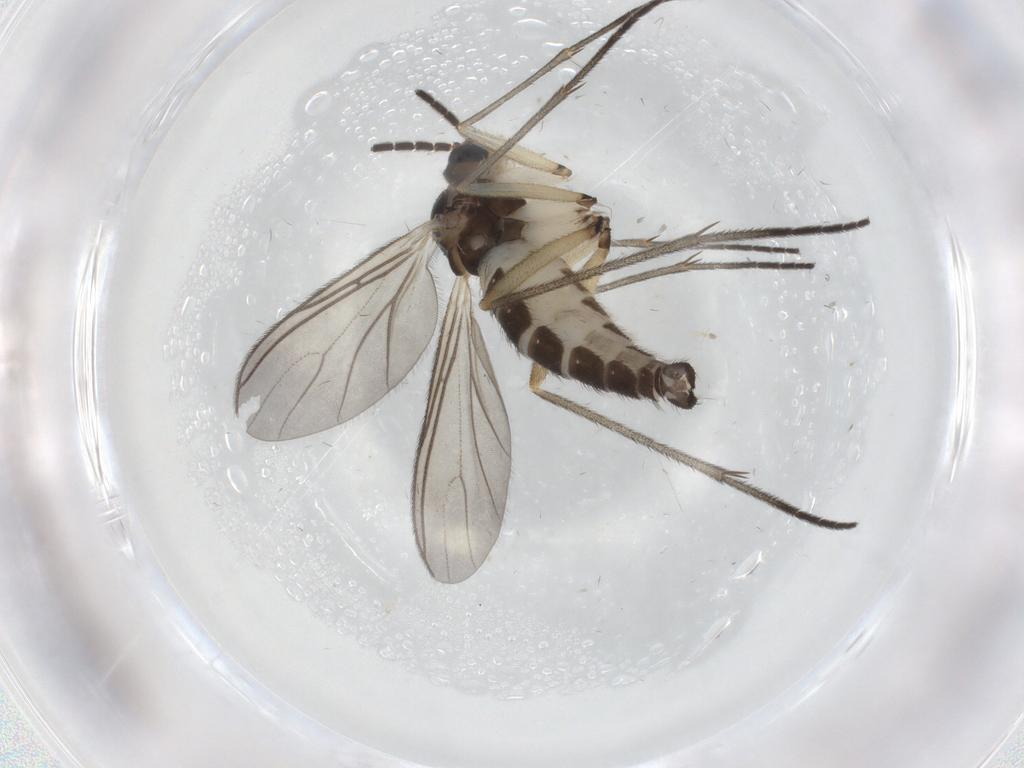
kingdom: Animalia
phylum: Arthropoda
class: Insecta
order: Diptera
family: Sciaridae
